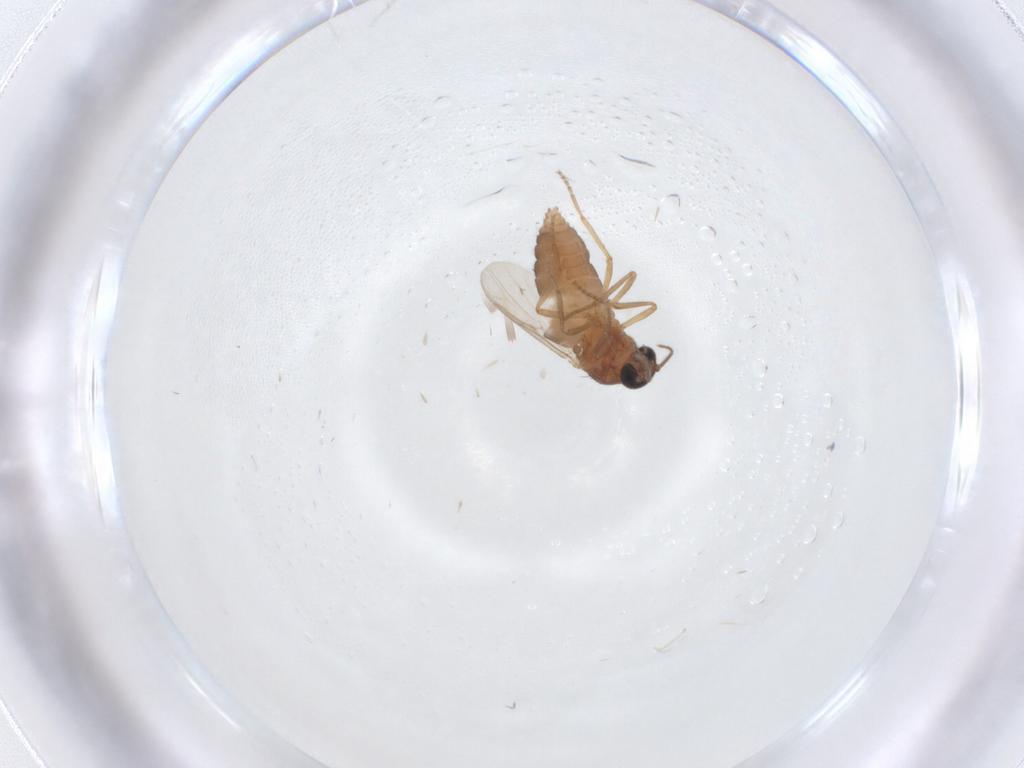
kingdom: Animalia
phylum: Arthropoda
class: Insecta
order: Diptera
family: Ceratopogonidae
